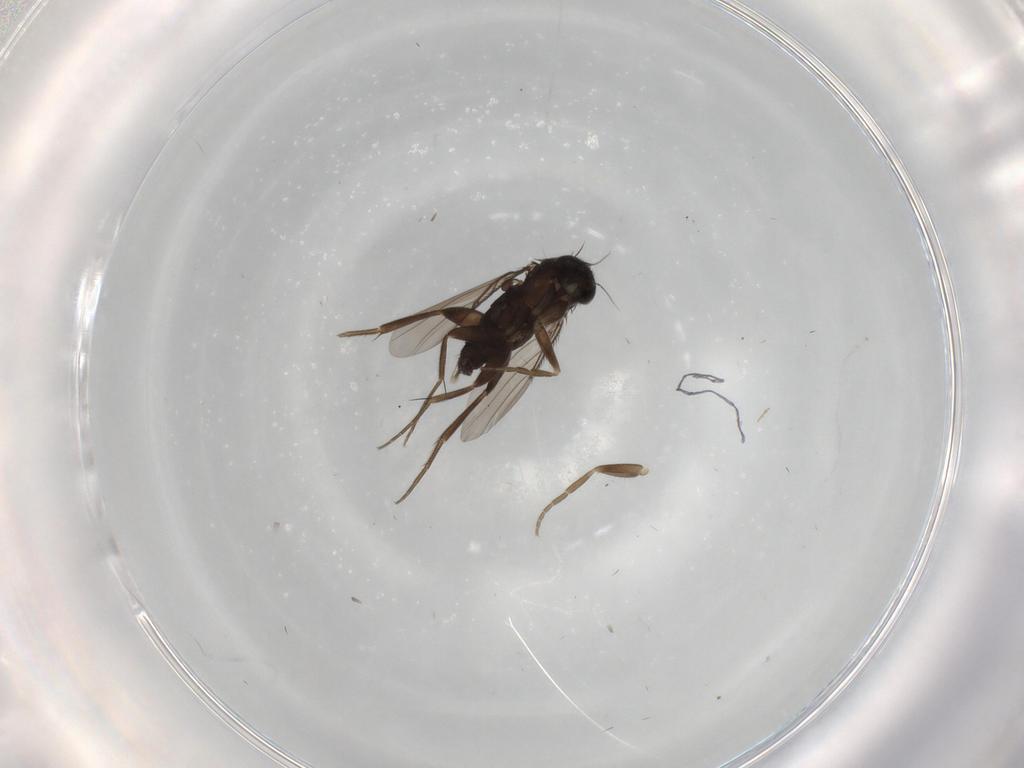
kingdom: Animalia
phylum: Arthropoda
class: Insecta
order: Diptera
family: Phoridae
